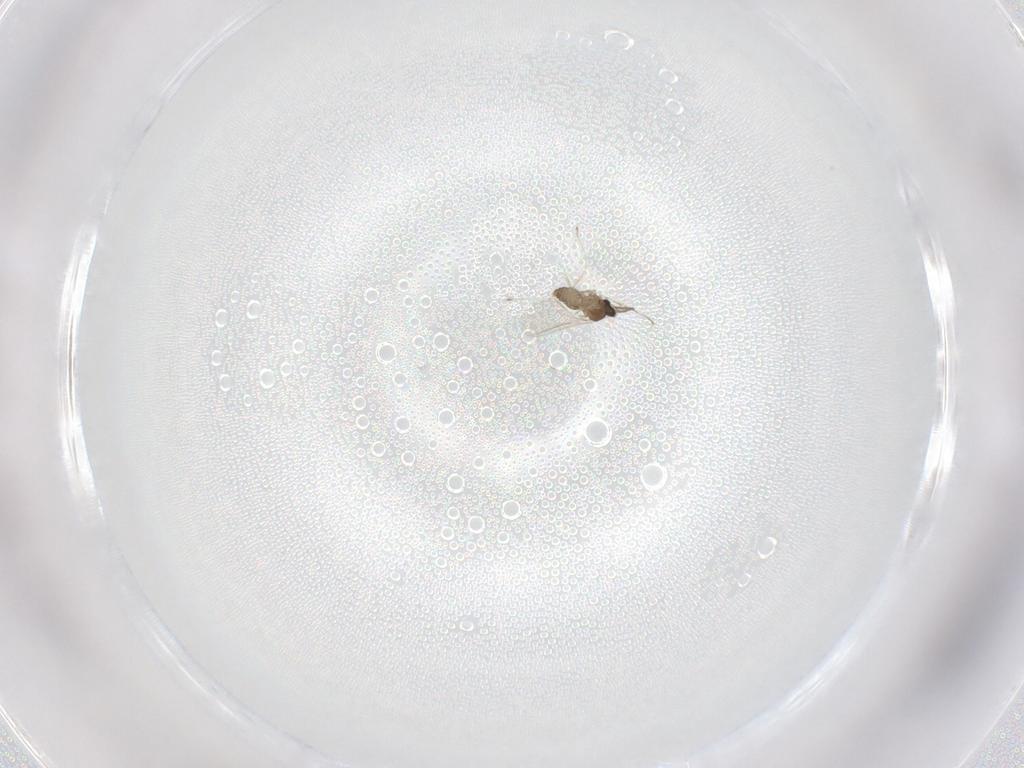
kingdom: Animalia
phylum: Arthropoda
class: Insecta
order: Diptera
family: Cecidomyiidae
